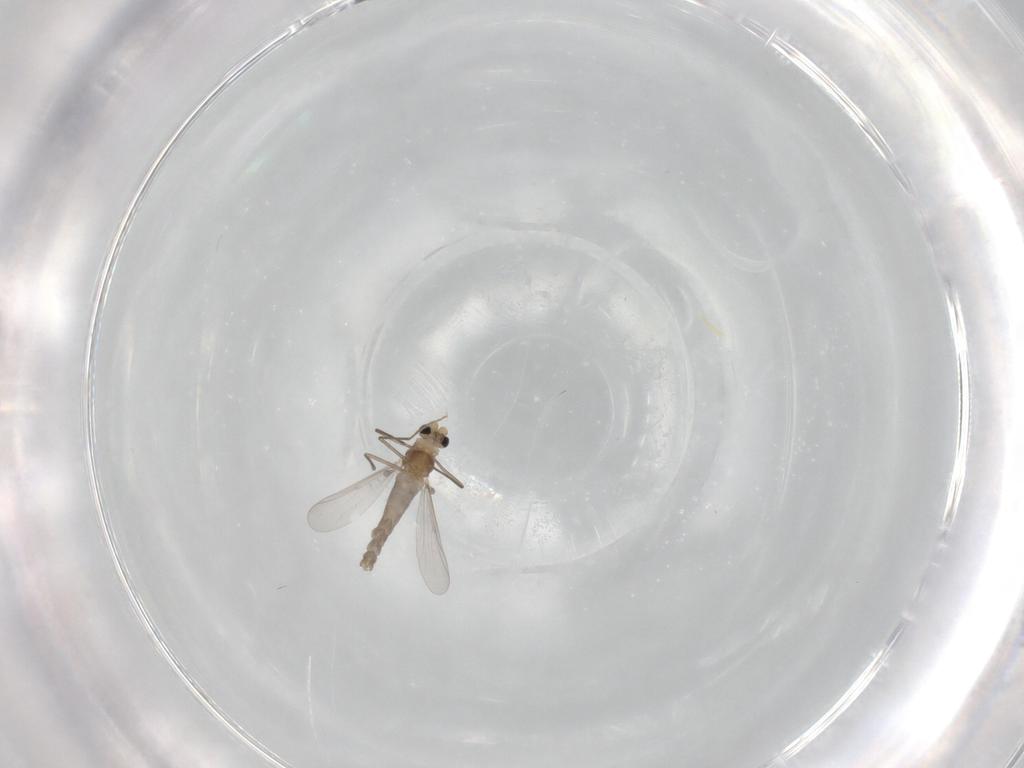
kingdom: Animalia
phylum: Arthropoda
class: Insecta
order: Diptera
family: Chironomidae
